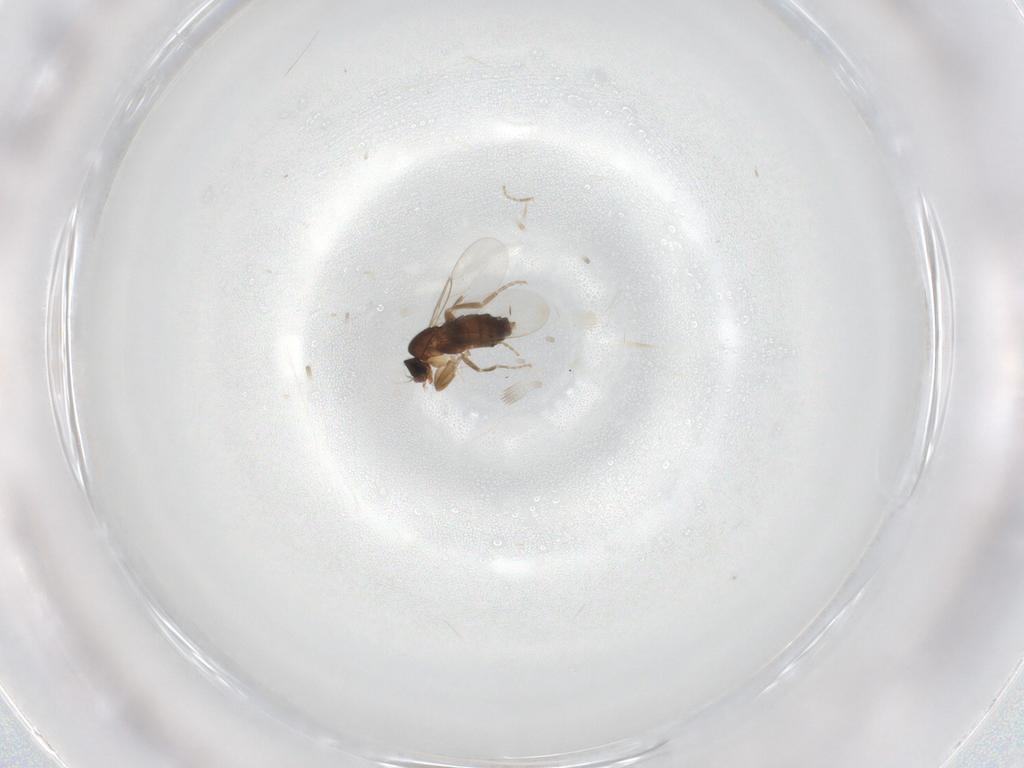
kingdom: Animalia
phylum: Arthropoda
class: Insecta
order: Diptera
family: Phoridae
